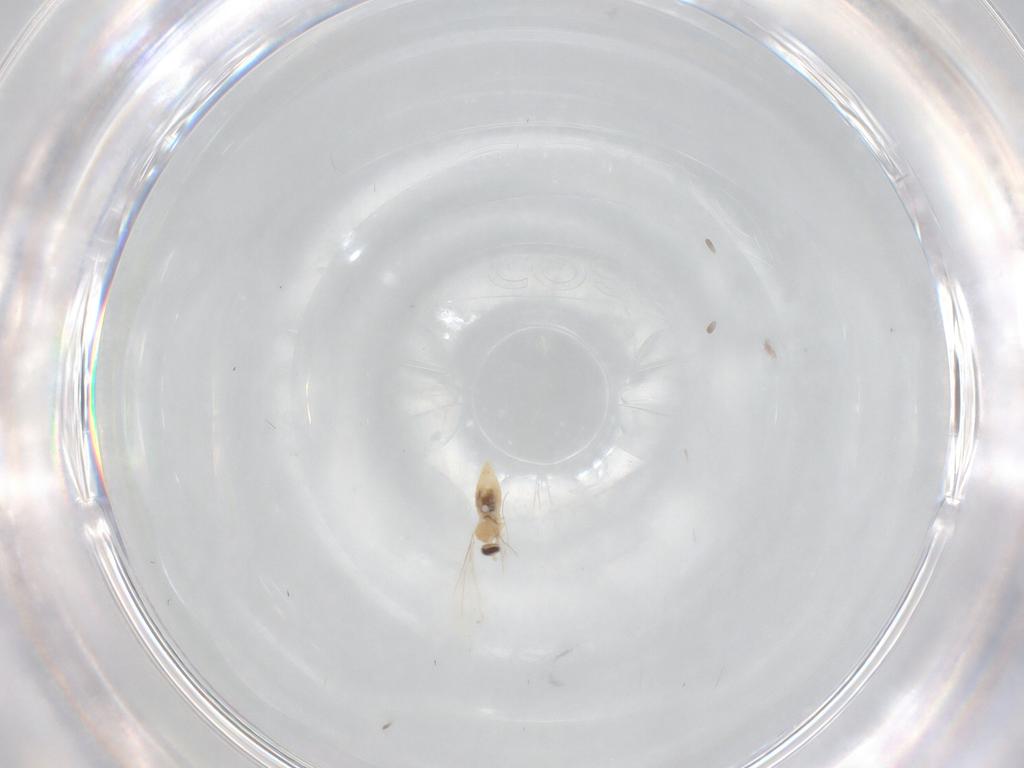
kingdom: Animalia
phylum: Arthropoda
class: Insecta
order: Diptera
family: Cecidomyiidae
